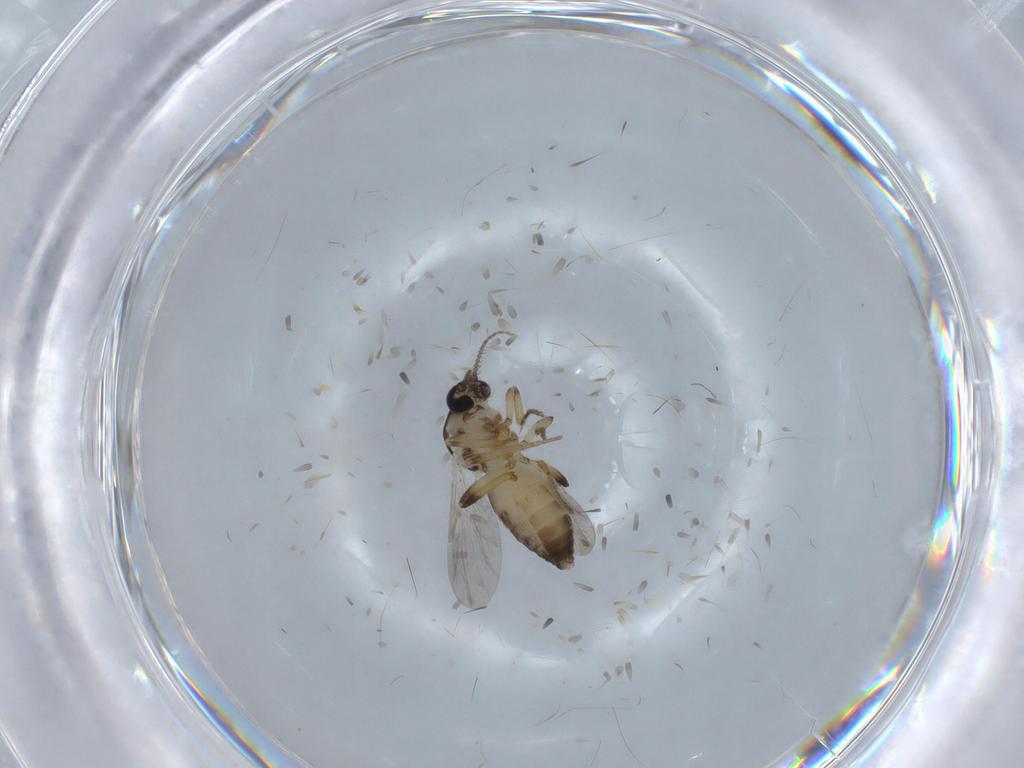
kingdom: Animalia
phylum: Arthropoda
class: Insecta
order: Diptera
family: Ceratopogonidae
